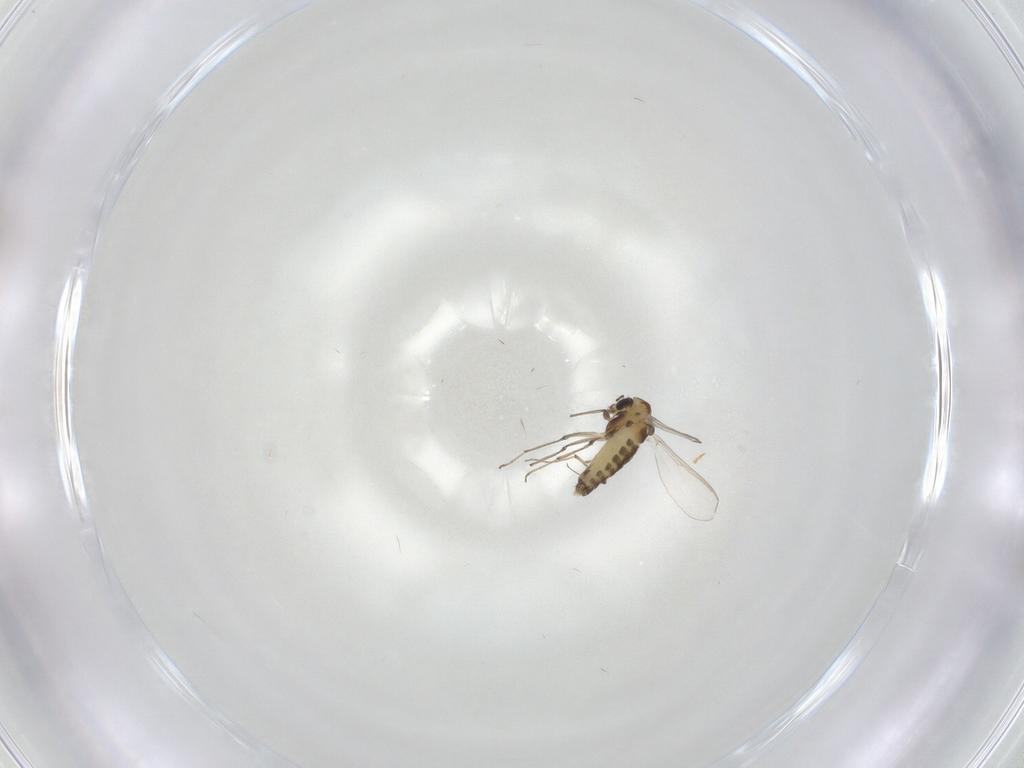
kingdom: Animalia
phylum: Arthropoda
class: Insecta
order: Diptera
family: Chironomidae
